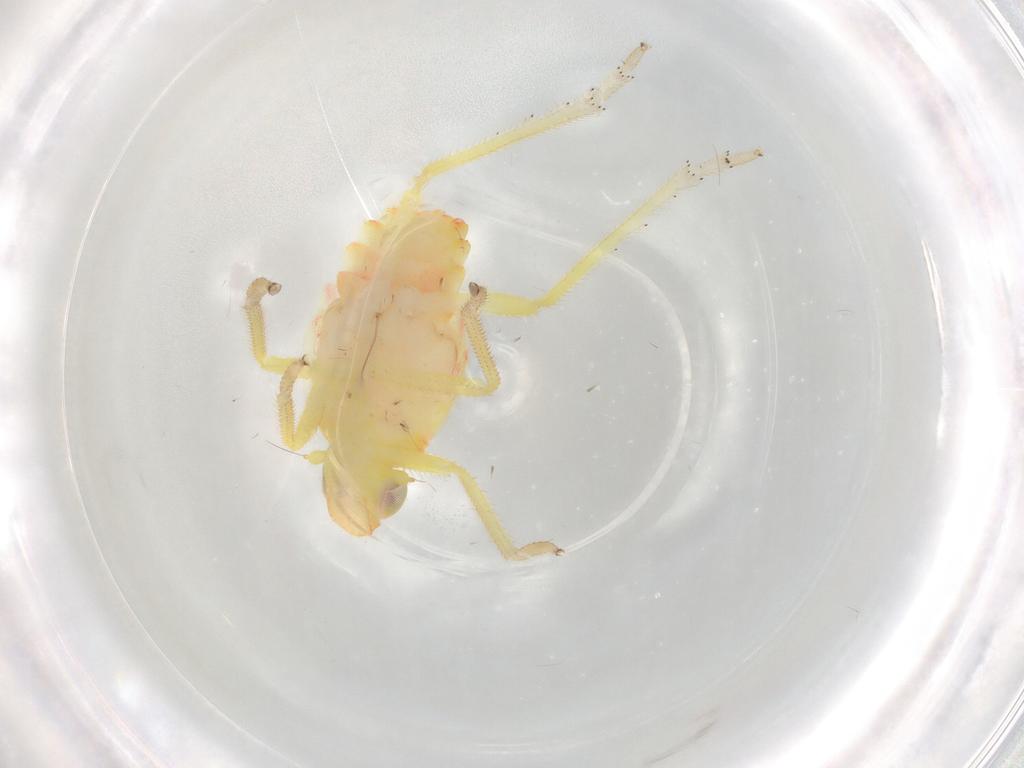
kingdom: Animalia
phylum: Arthropoda
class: Insecta
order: Hemiptera
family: Tropiduchidae
